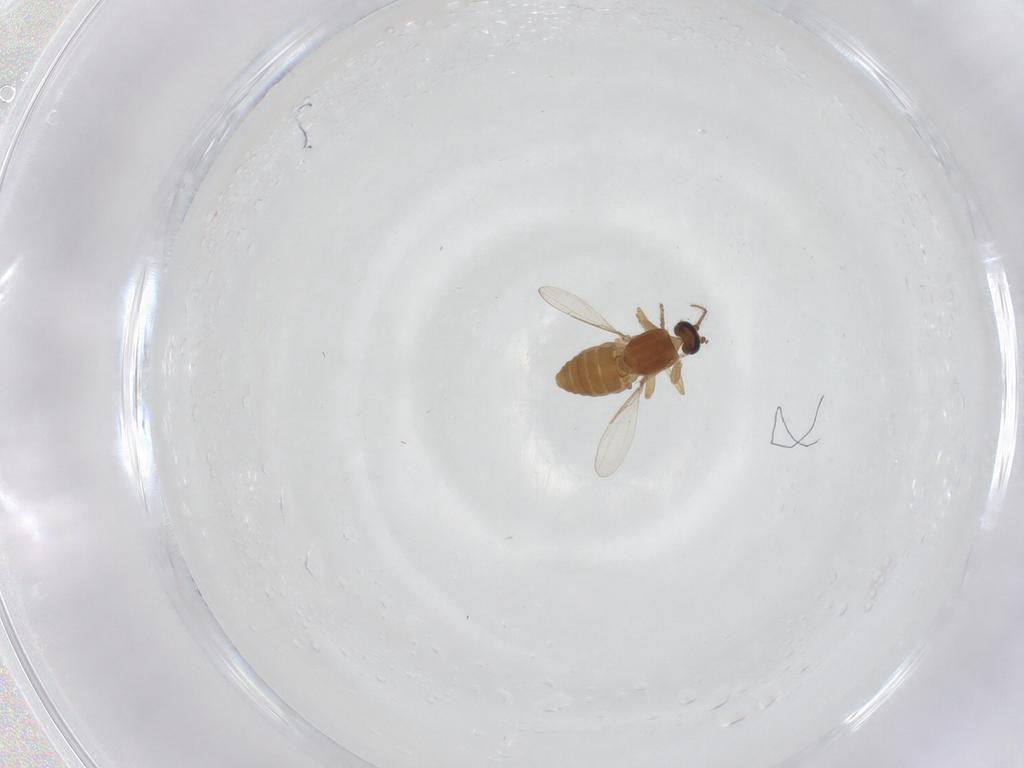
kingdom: Animalia
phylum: Arthropoda
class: Insecta
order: Diptera
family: Ceratopogonidae
